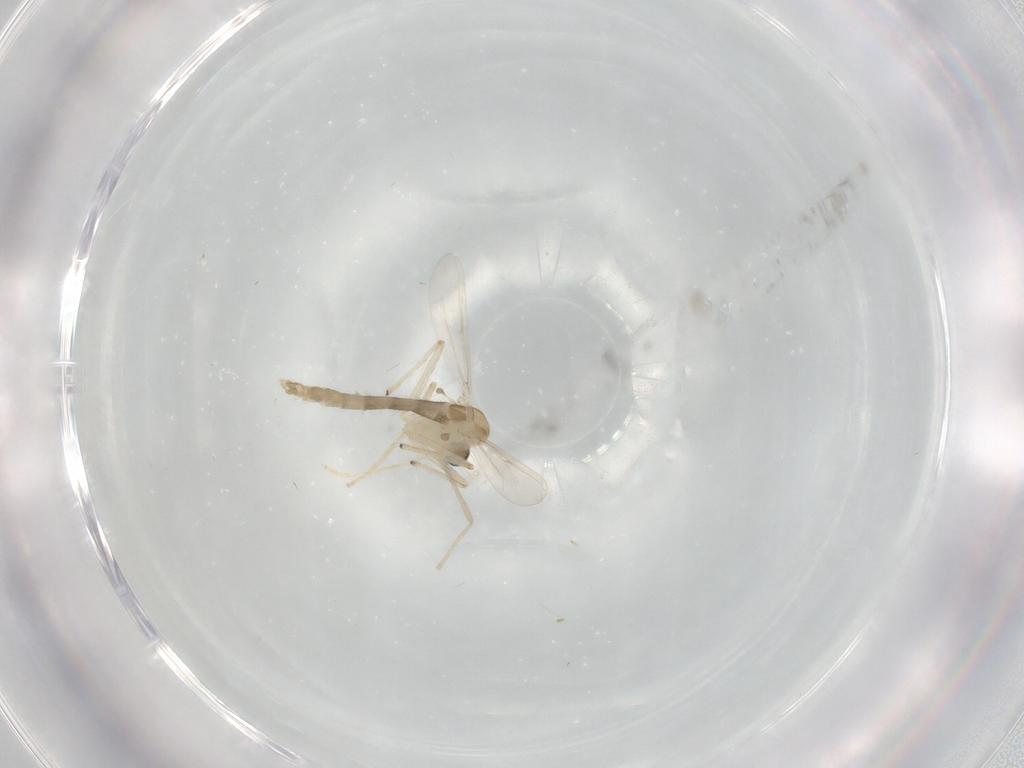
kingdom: Animalia
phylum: Arthropoda
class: Insecta
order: Diptera
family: Chironomidae
